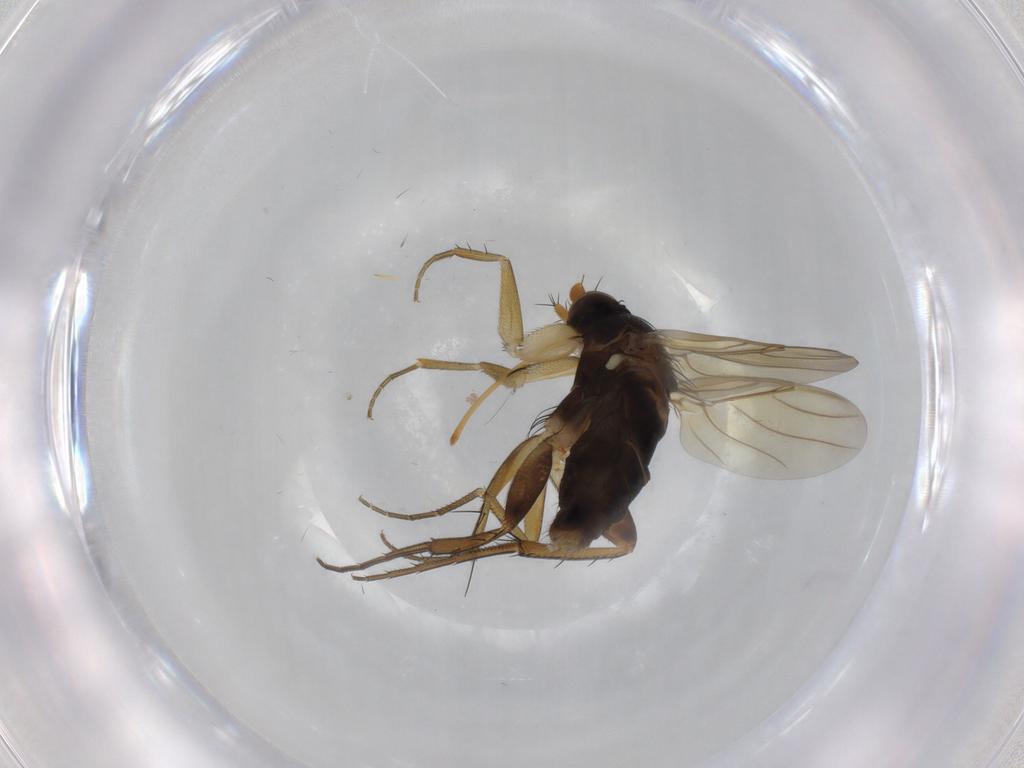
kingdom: Animalia
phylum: Arthropoda
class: Insecta
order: Diptera
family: Phoridae
